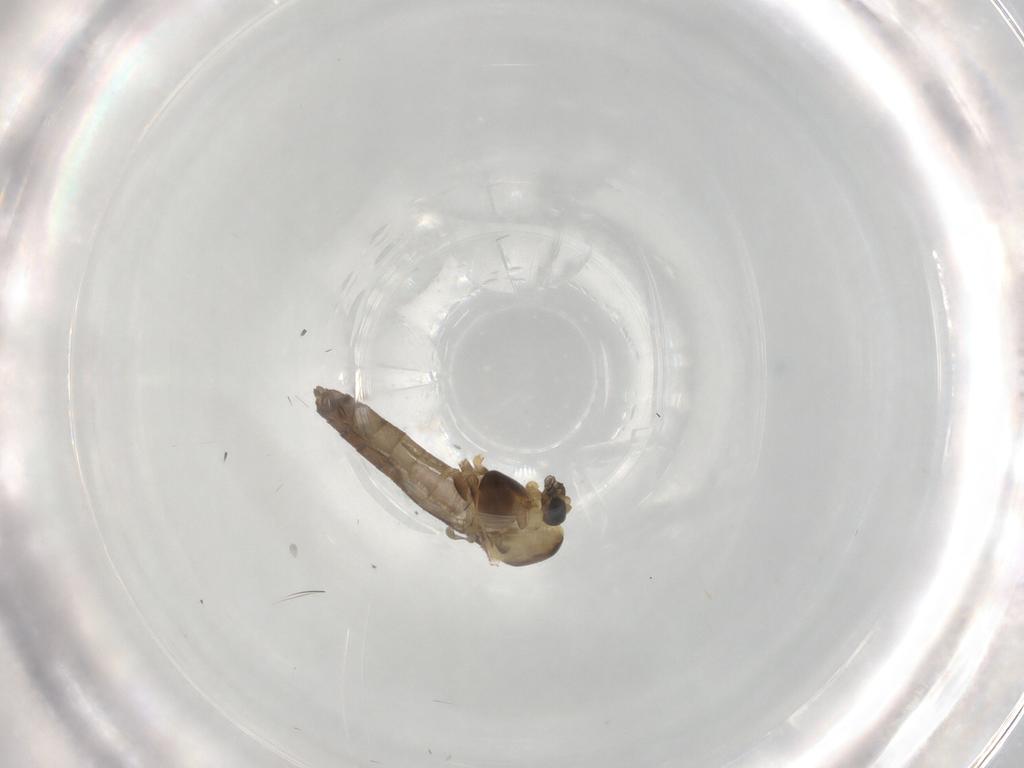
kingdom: Animalia
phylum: Arthropoda
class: Insecta
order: Diptera
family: Chironomidae
